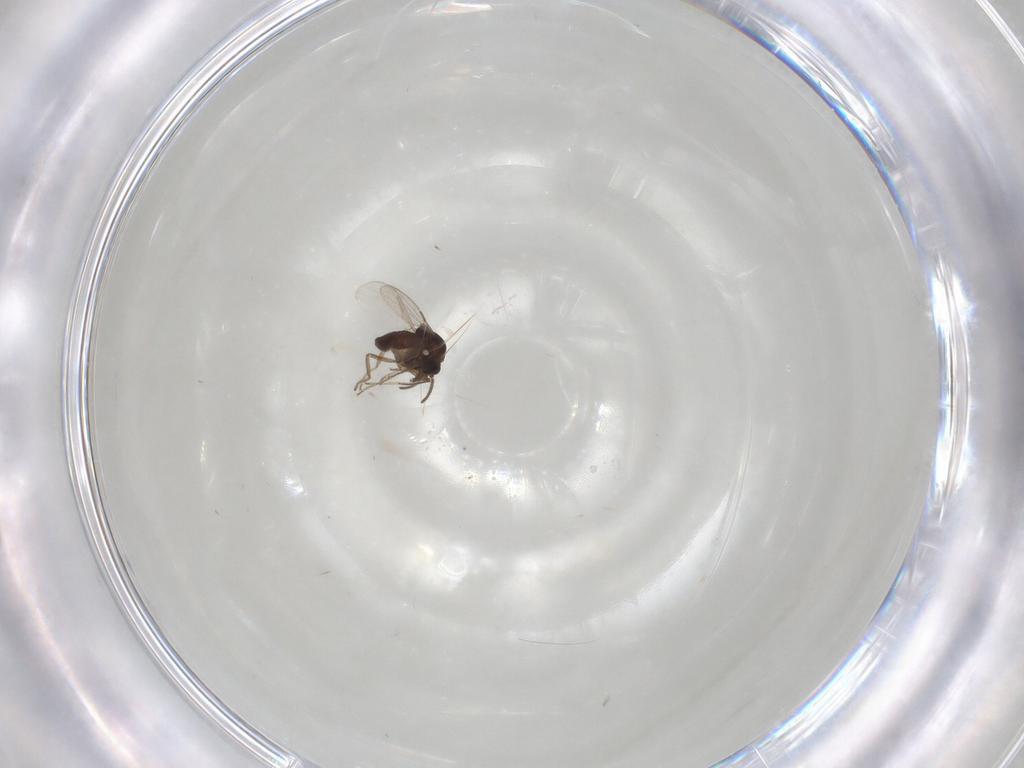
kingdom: Animalia
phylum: Arthropoda
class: Insecta
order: Diptera
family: Ceratopogonidae
